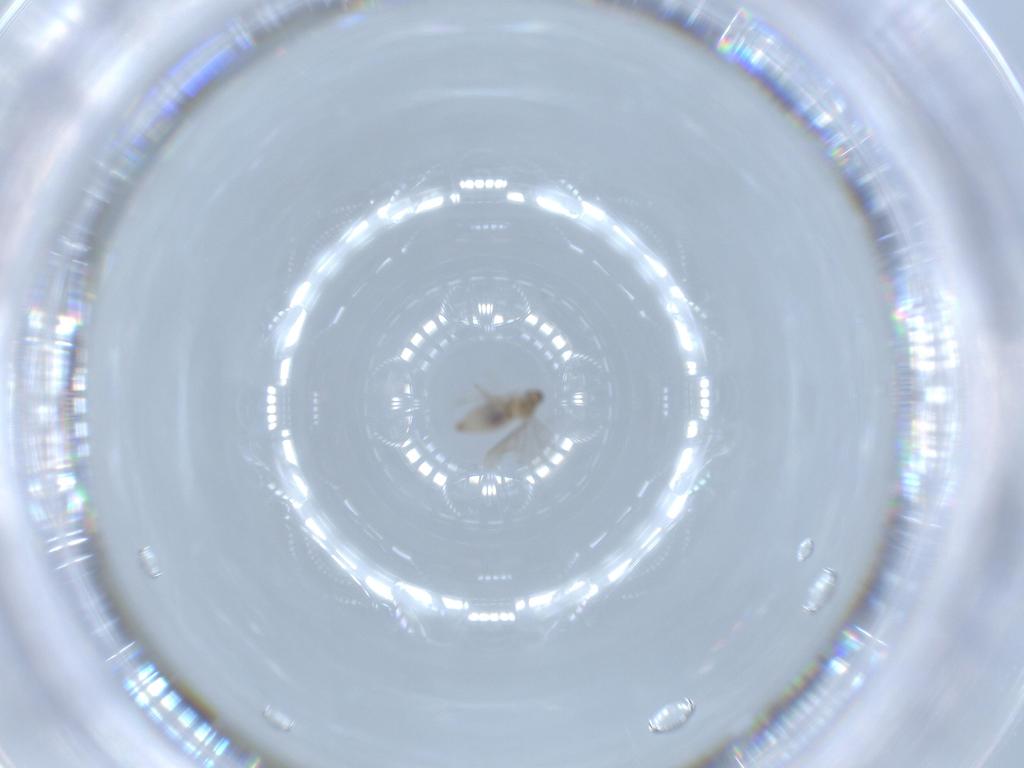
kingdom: Animalia
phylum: Arthropoda
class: Insecta
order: Diptera
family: Cecidomyiidae
